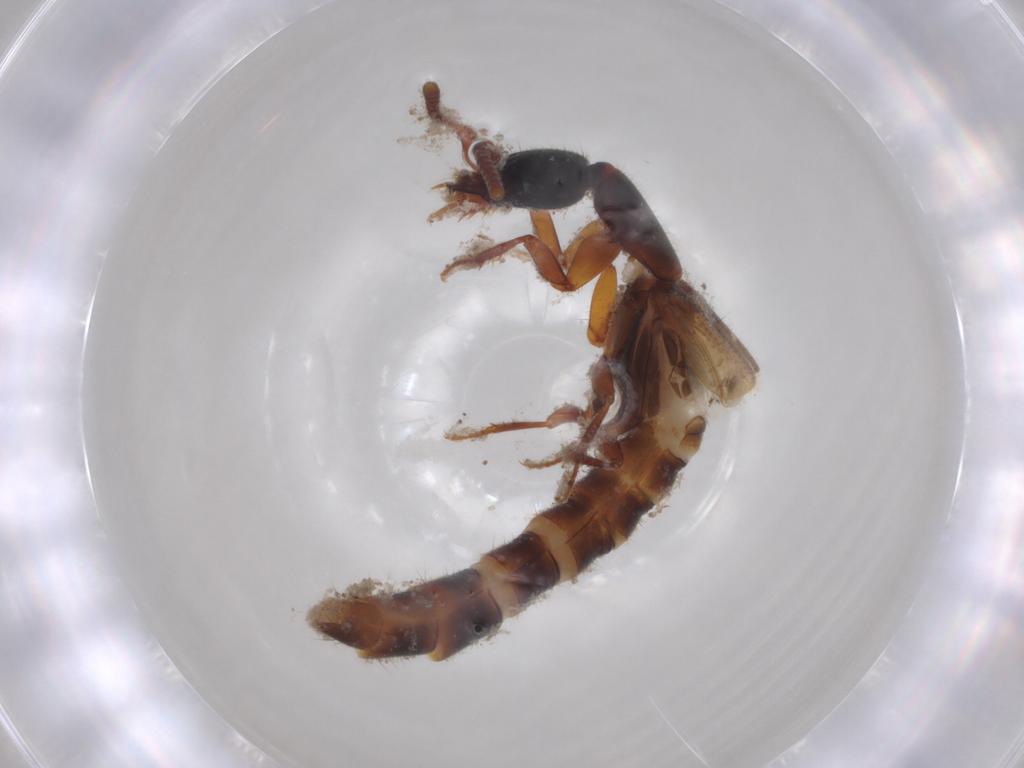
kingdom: Animalia
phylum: Arthropoda
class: Insecta
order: Coleoptera
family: Staphylinidae
